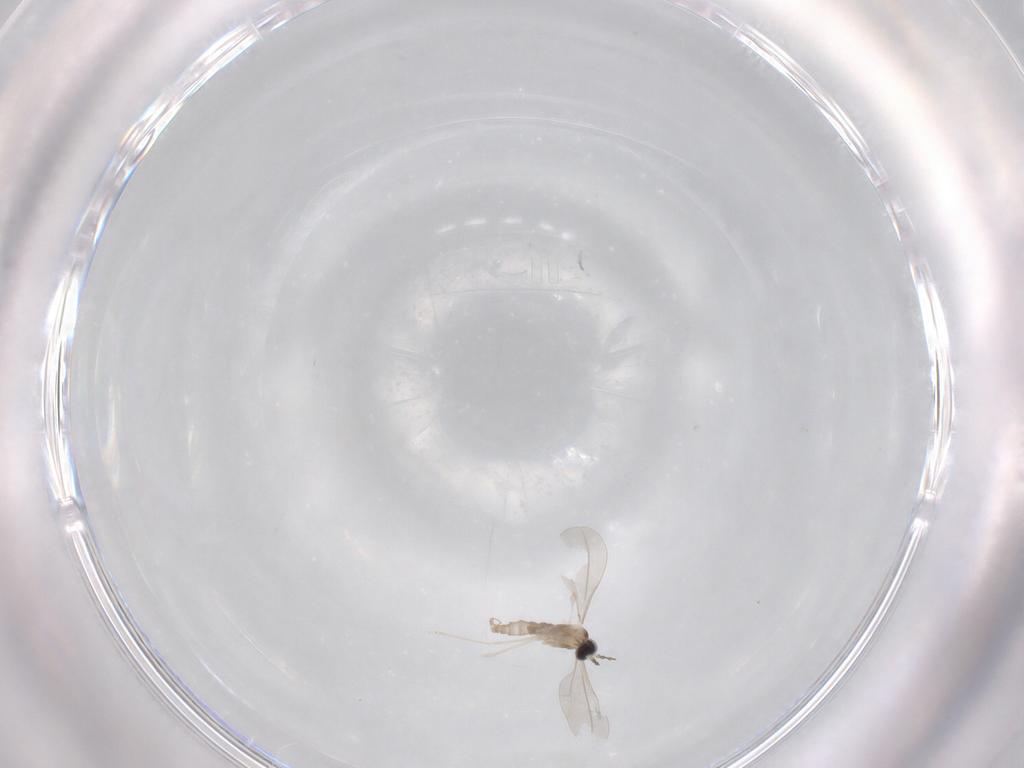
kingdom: Animalia
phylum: Arthropoda
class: Insecta
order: Diptera
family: Cecidomyiidae
